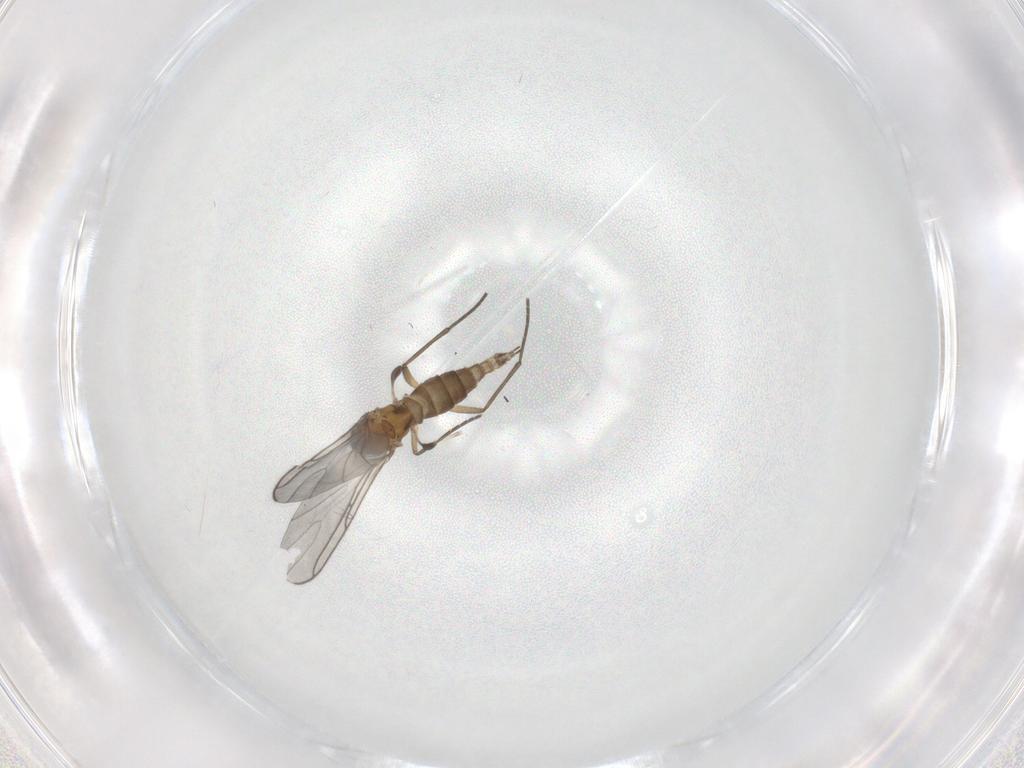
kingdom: Animalia
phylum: Arthropoda
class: Insecta
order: Diptera
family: Sciaridae
